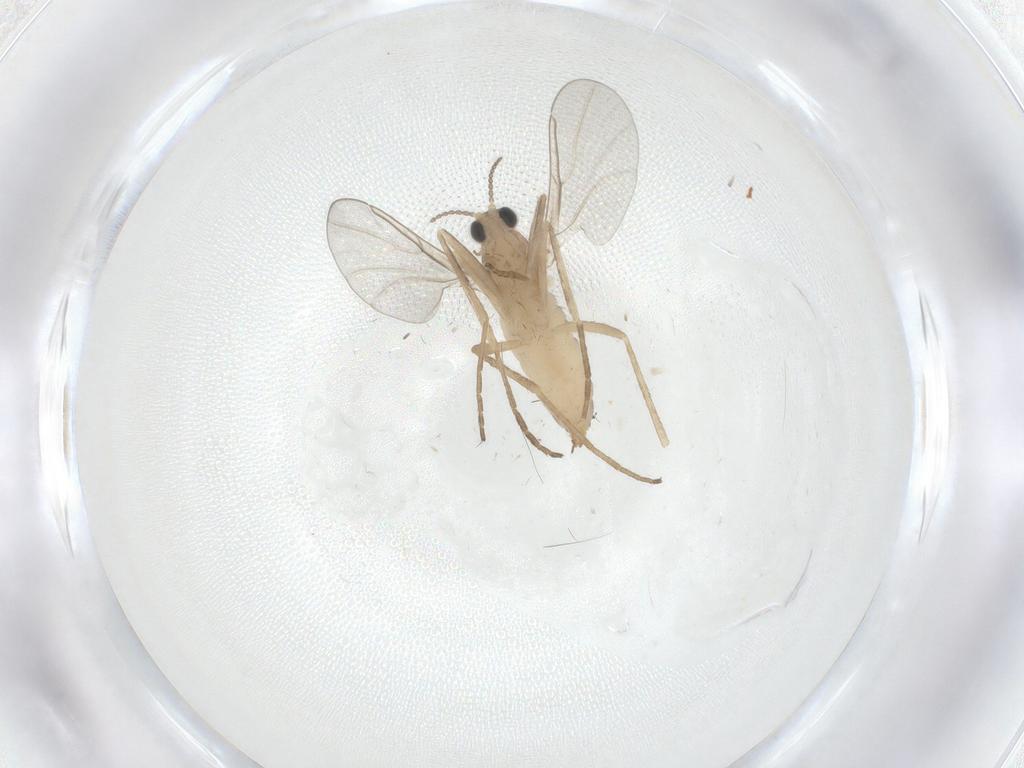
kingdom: Animalia
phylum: Arthropoda
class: Insecta
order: Diptera
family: Cecidomyiidae
